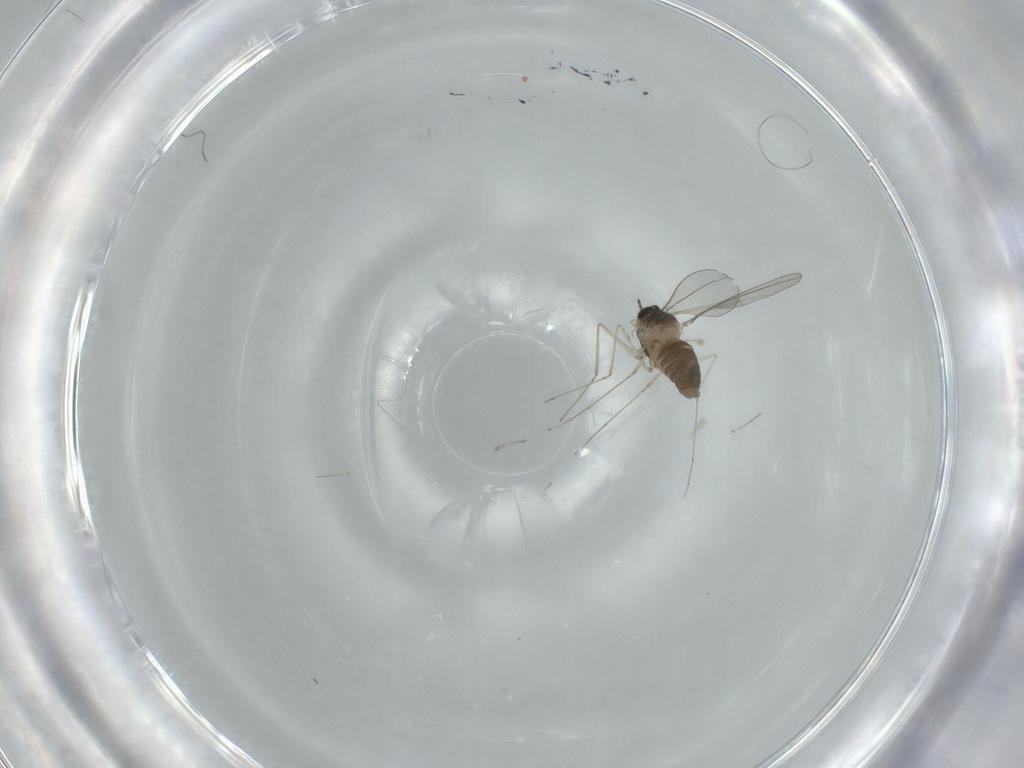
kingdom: Animalia
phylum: Arthropoda
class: Insecta
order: Diptera
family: Cecidomyiidae
